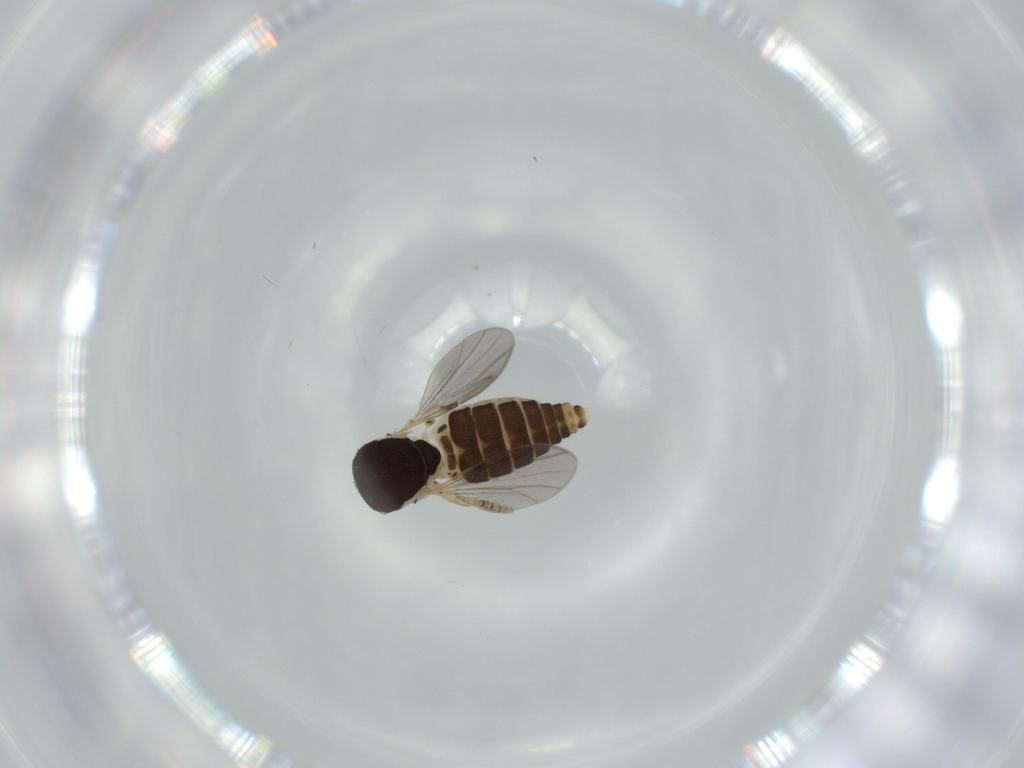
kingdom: Animalia
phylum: Arthropoda
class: Insecta
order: Diptera
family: Ceratopogonidae
